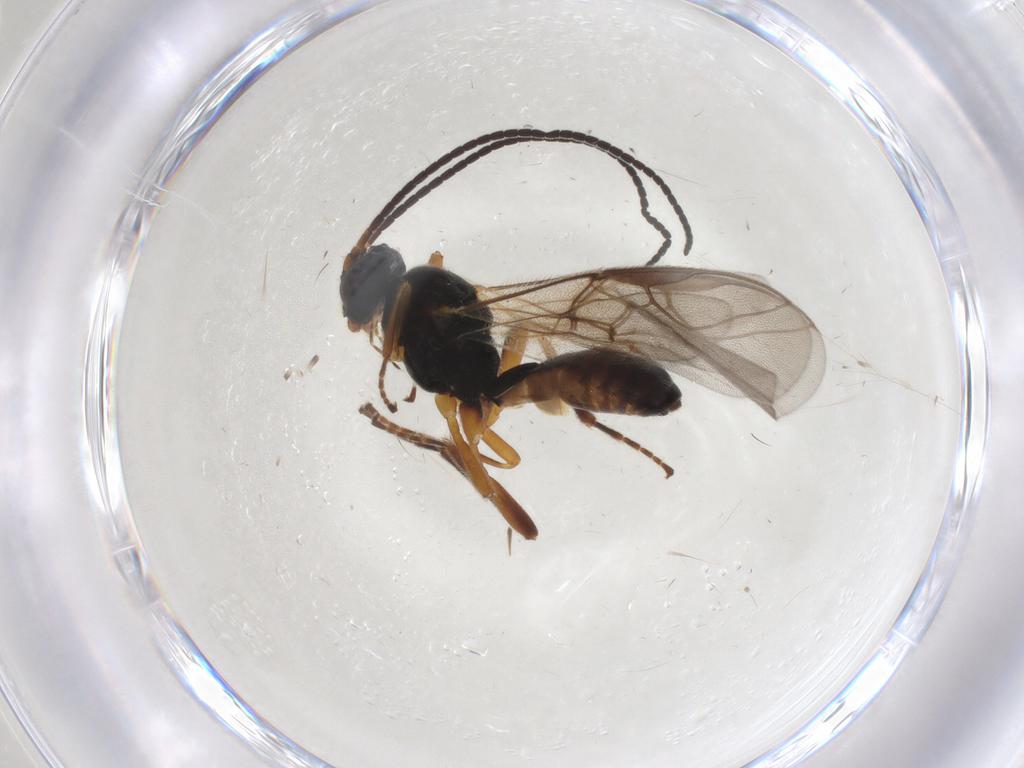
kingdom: Animalia
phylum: Arthropoda
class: Insecta
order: Hymenoptera
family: Braconidae
